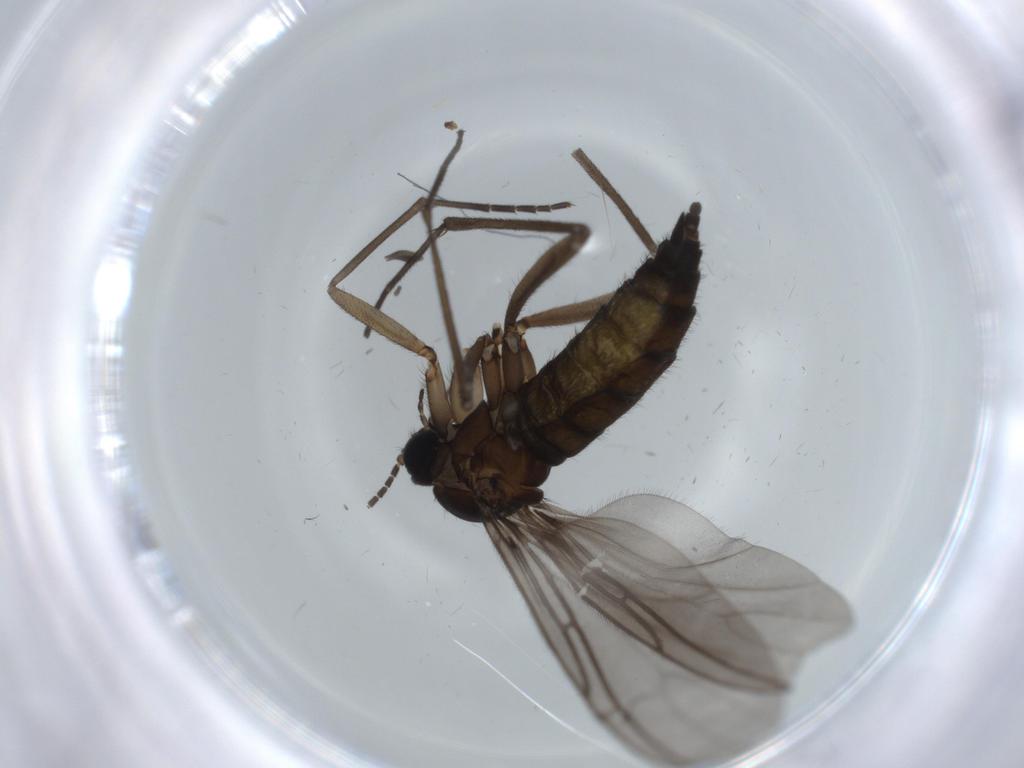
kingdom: Animalia
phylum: Arthropoda
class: Insecta
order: Diptera
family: Sciaridae
